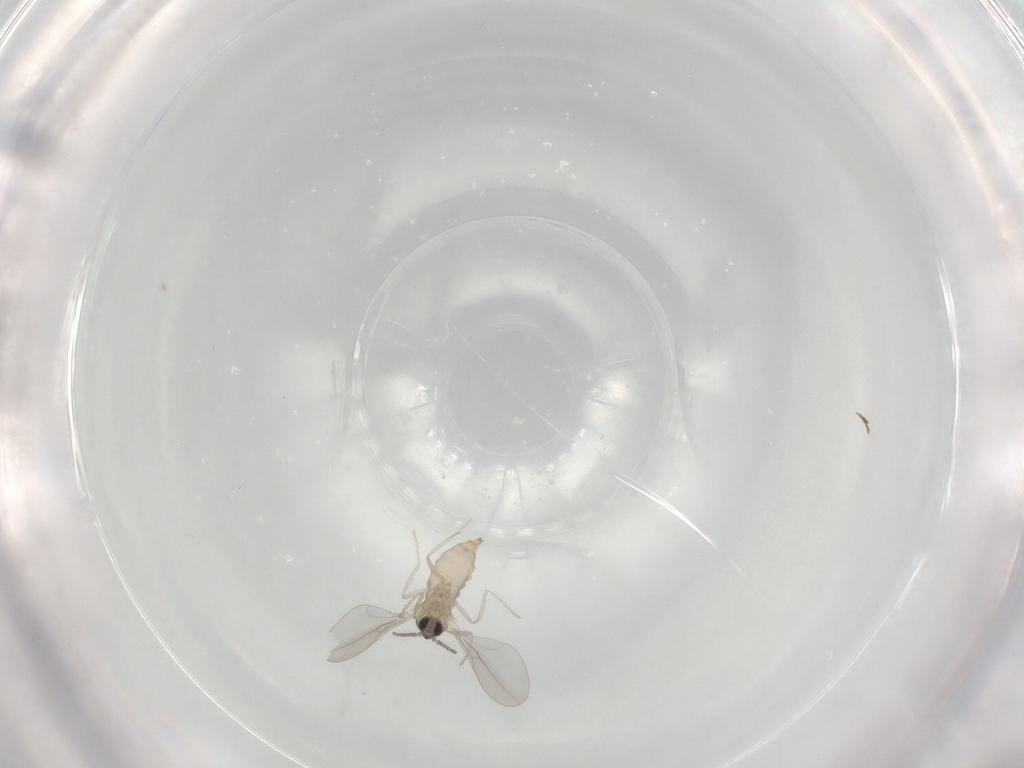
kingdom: Animalia
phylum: Arthropoda
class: Insecta
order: Diptera
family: Cecidomyiidae
